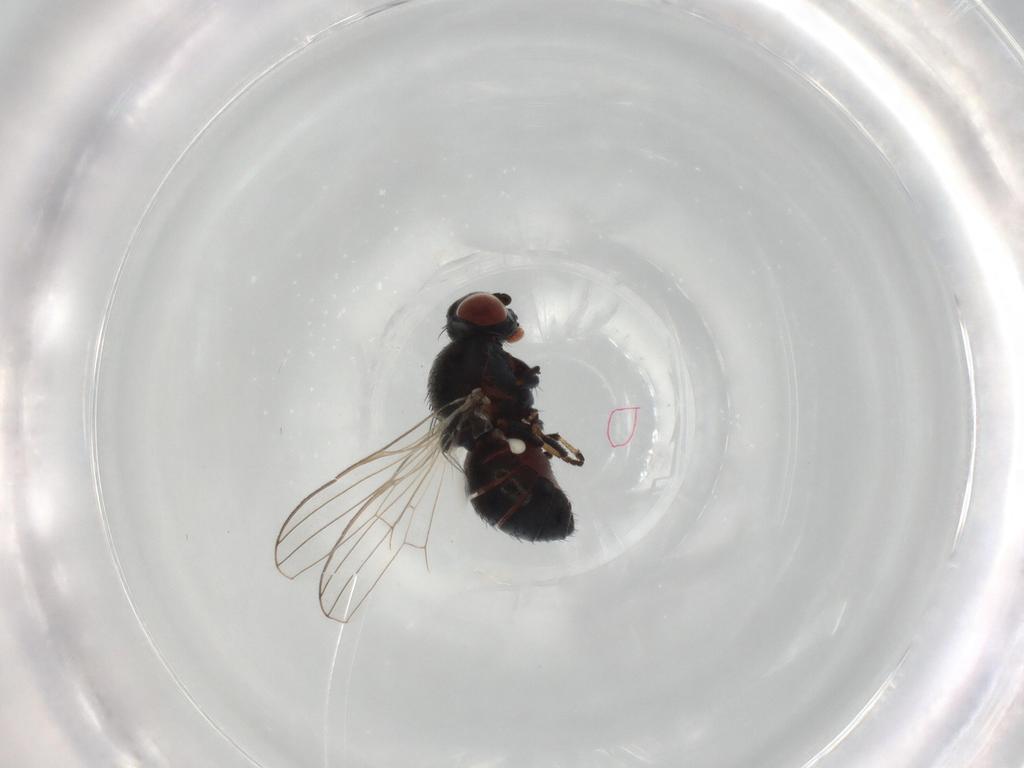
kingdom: Animalia
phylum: Arthropoda
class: Insecta
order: Diptera
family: Chamaemyiidae
